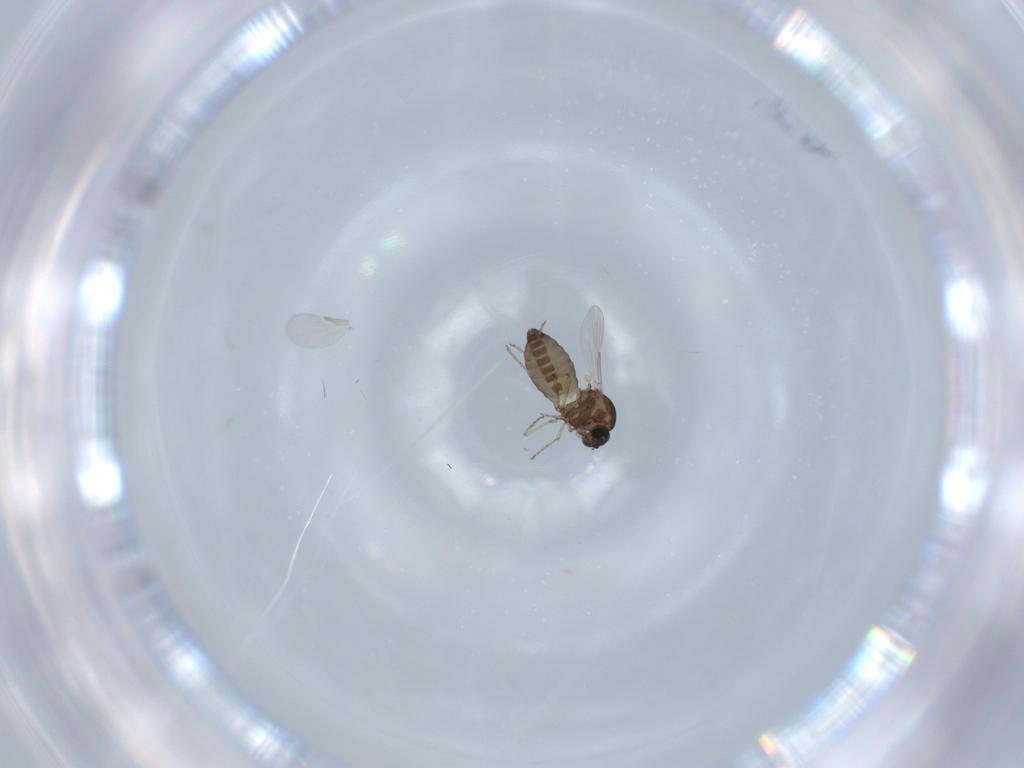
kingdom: Animalia
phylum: Arthropoda
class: Insecta
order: Diptera
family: Ceratopogonidae
